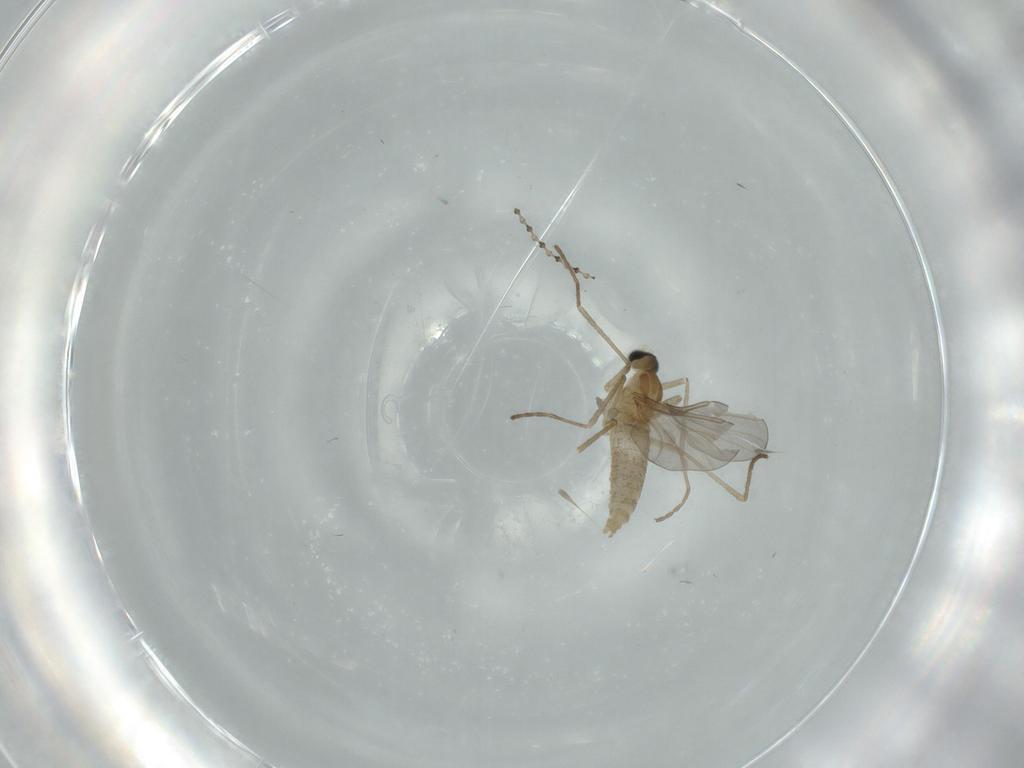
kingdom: Animalia
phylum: Arthropoda
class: Insecta
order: Diptera
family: Cecidomyiidae
